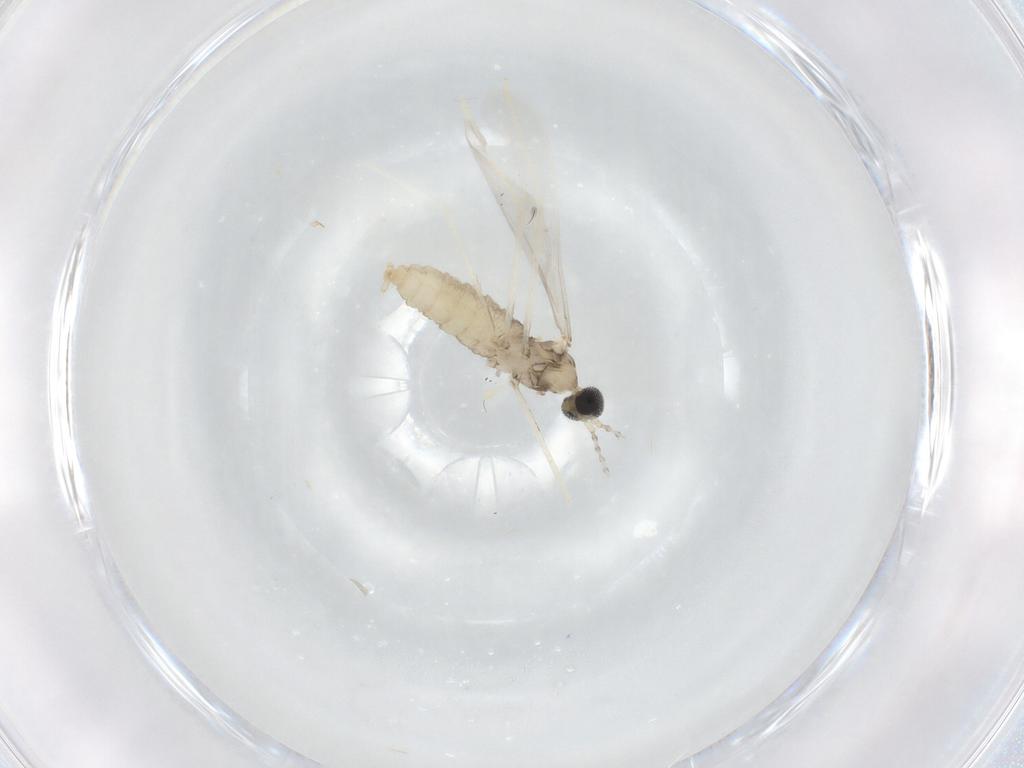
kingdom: Animalia
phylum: Arthropoda
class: Insecta
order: Diptera
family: Cecidomyiidae
